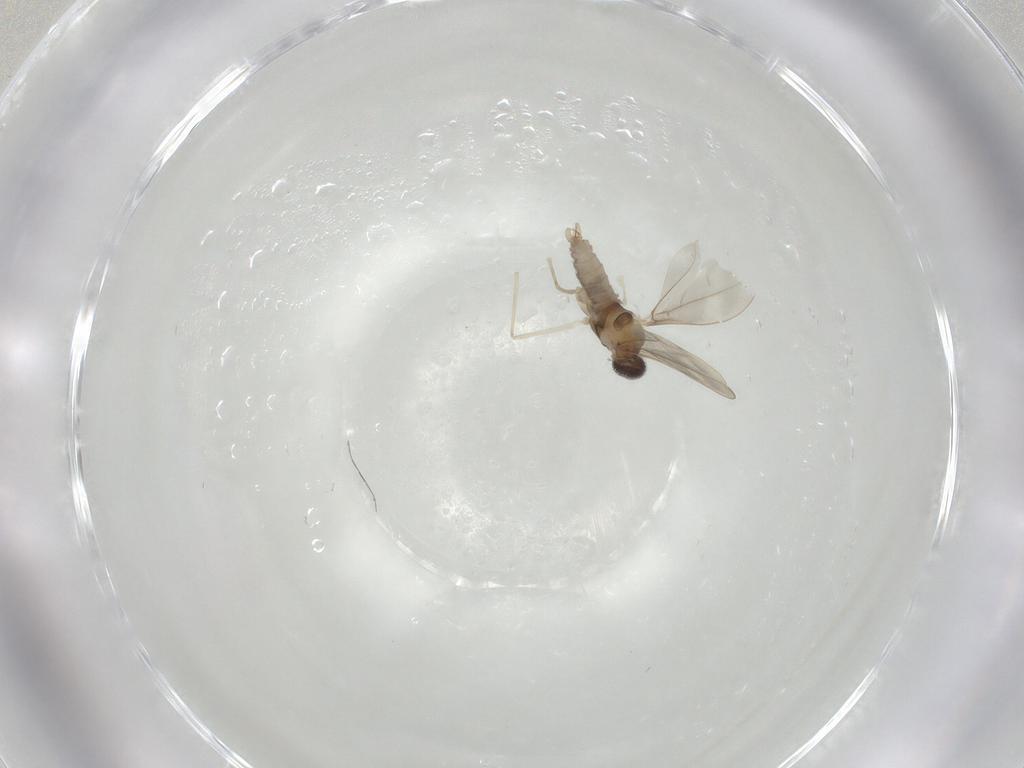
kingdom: Animalia
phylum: Arthropoda
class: Insecta
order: Diptera
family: Cecidomyiidae
